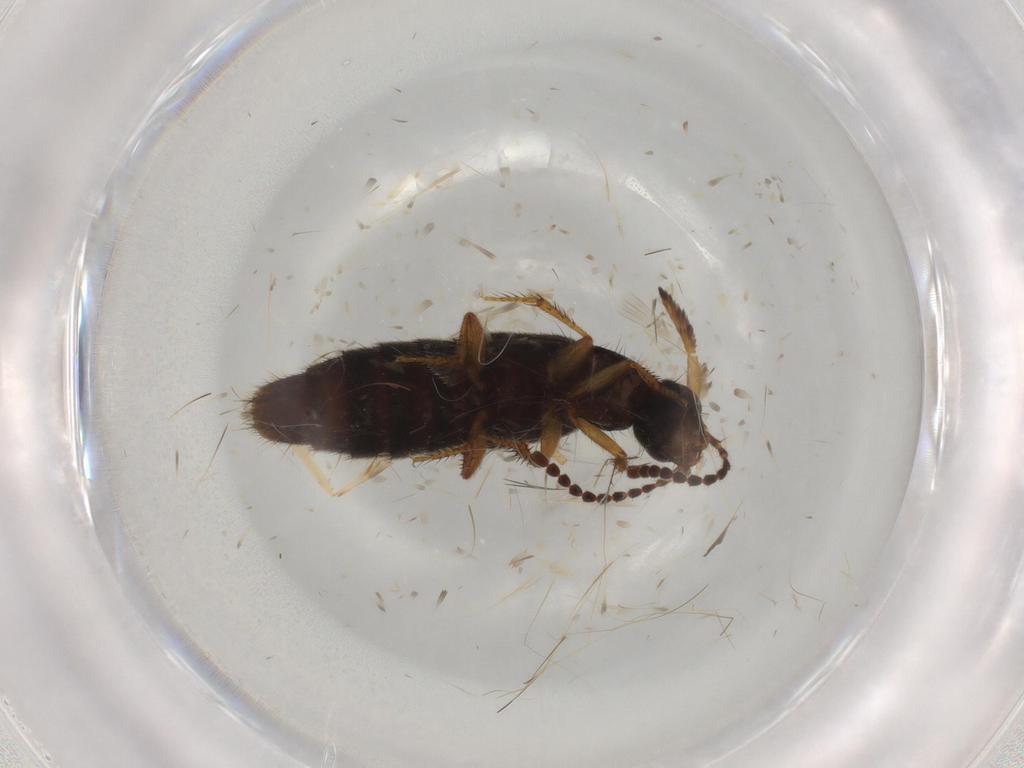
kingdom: Animalia
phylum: Arthropoda
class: Insecta
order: Coleoptera
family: Staphylinidae
